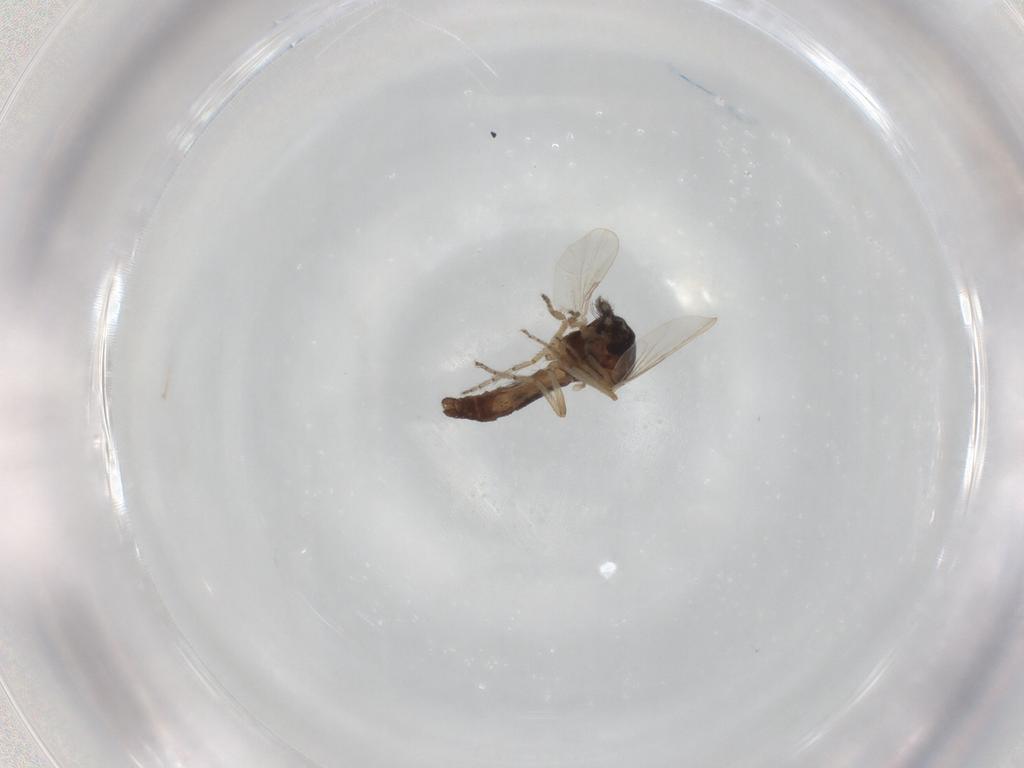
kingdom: Animalia
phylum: Arthropoda
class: Insecta
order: Diptera
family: Ceratopogonidae
